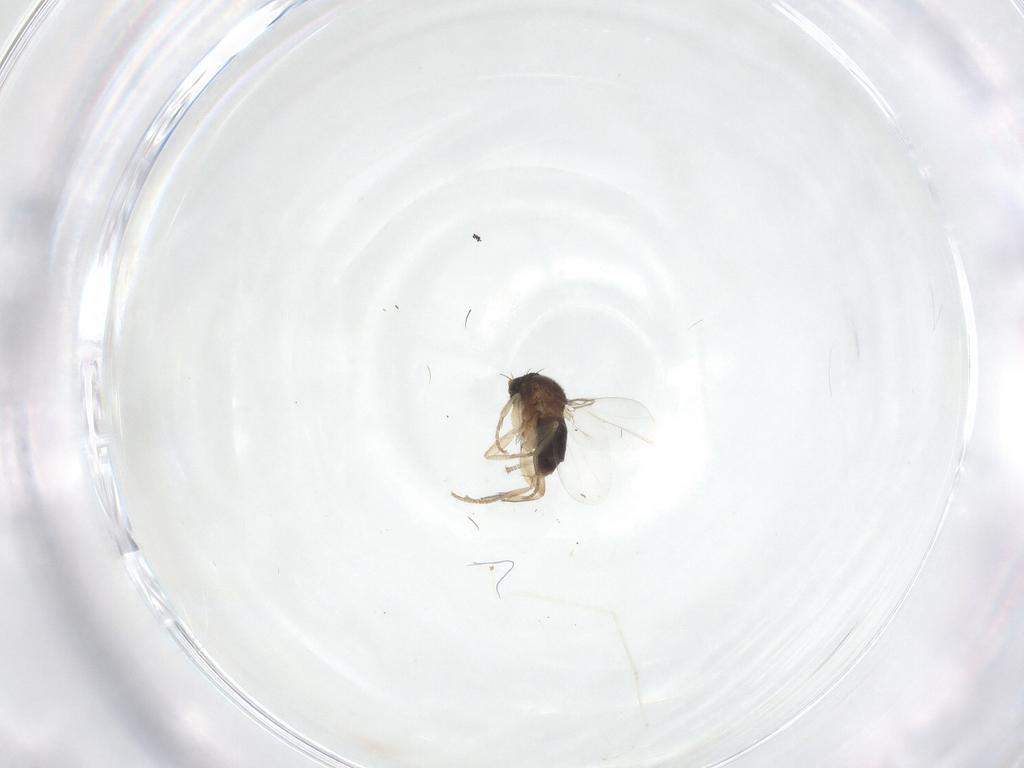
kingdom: Animalia
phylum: Arthropoda
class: Insecta
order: Diptera
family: Cecidomyiidae
